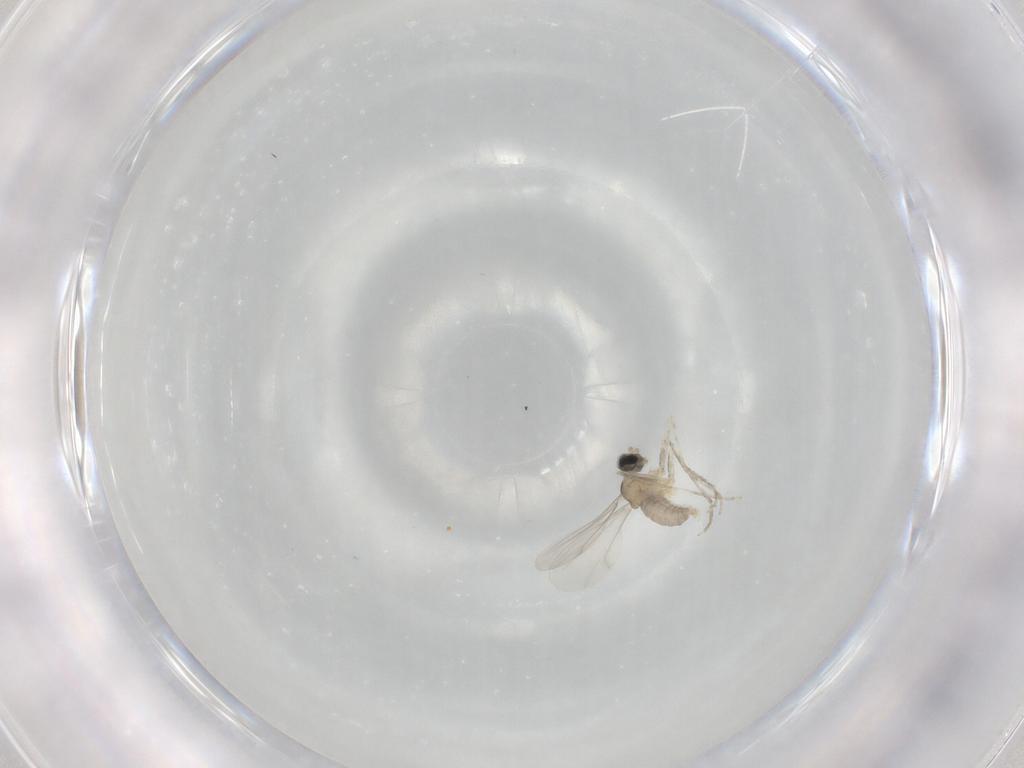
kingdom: Animalia
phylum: Arthropoda
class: Insecta
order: Diptera
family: Cecidomyiidae
